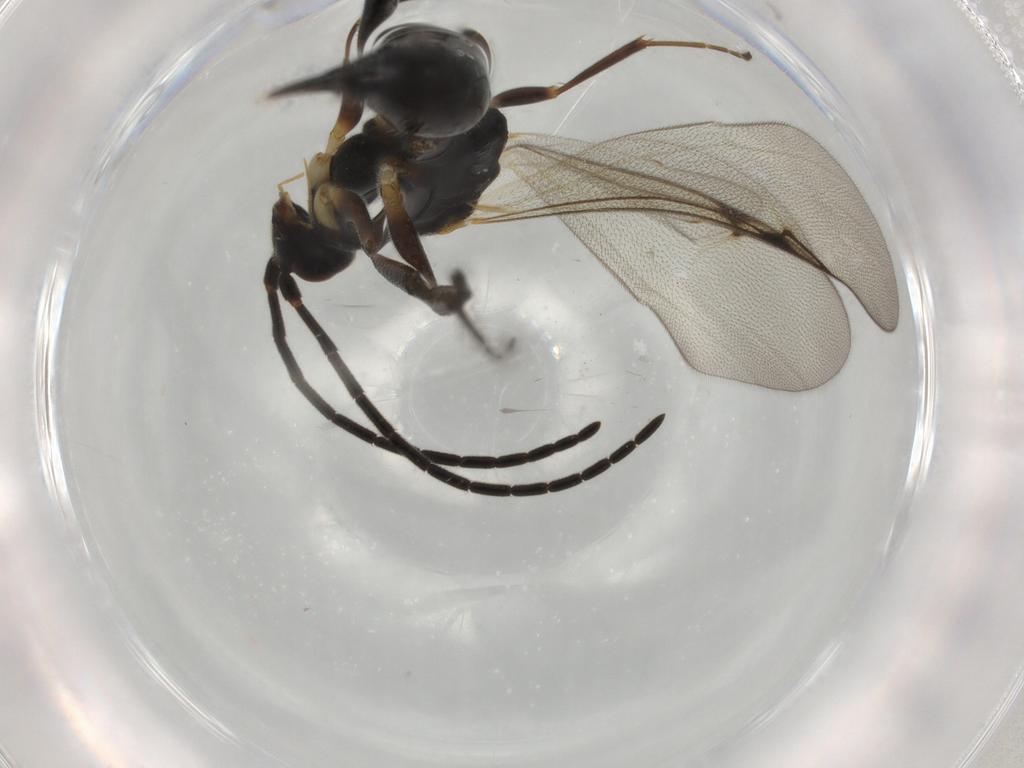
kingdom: Animalia
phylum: Arthropoda
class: Insecta
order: Hymenoptera
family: Proctotrupidae
